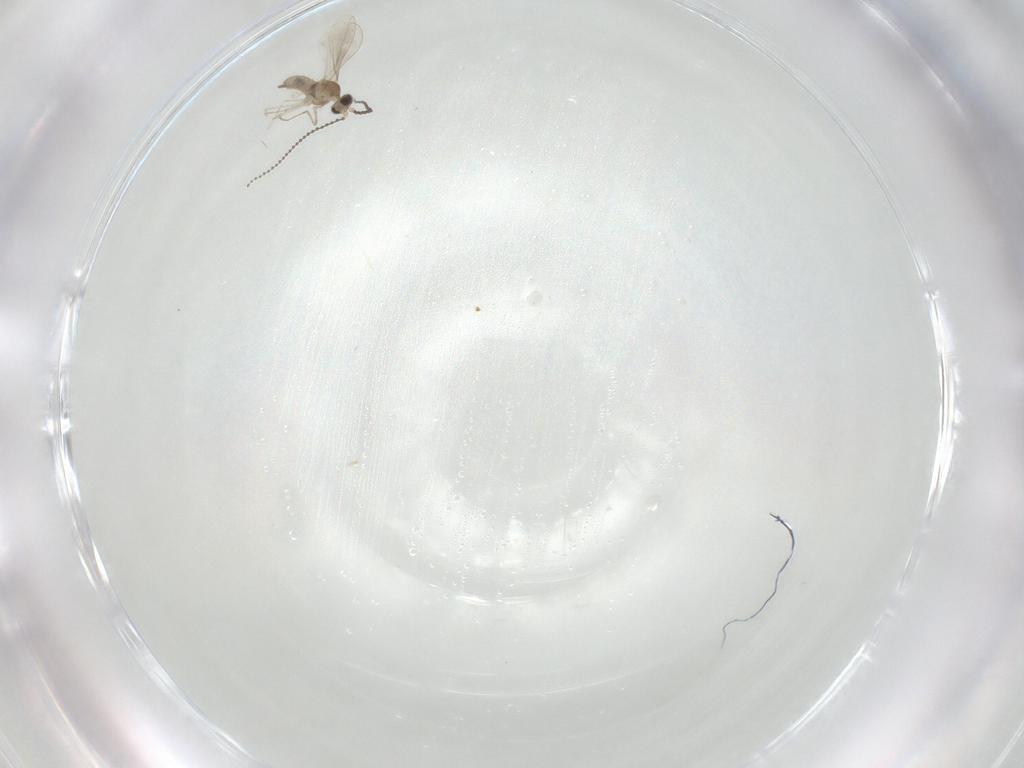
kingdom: Animalia
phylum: Arthropoda
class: Insecta
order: Diptera
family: Cecidomyiidae
